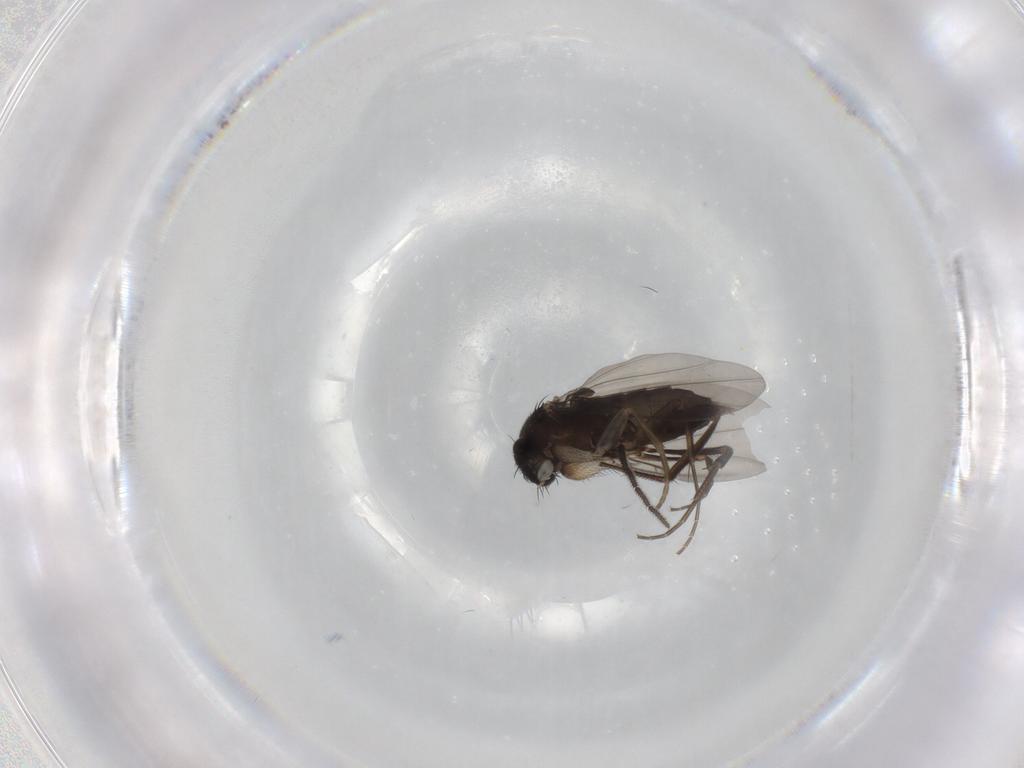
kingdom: Animalia
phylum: Arthropoda
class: Insecta
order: Diptera
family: Phoridae
